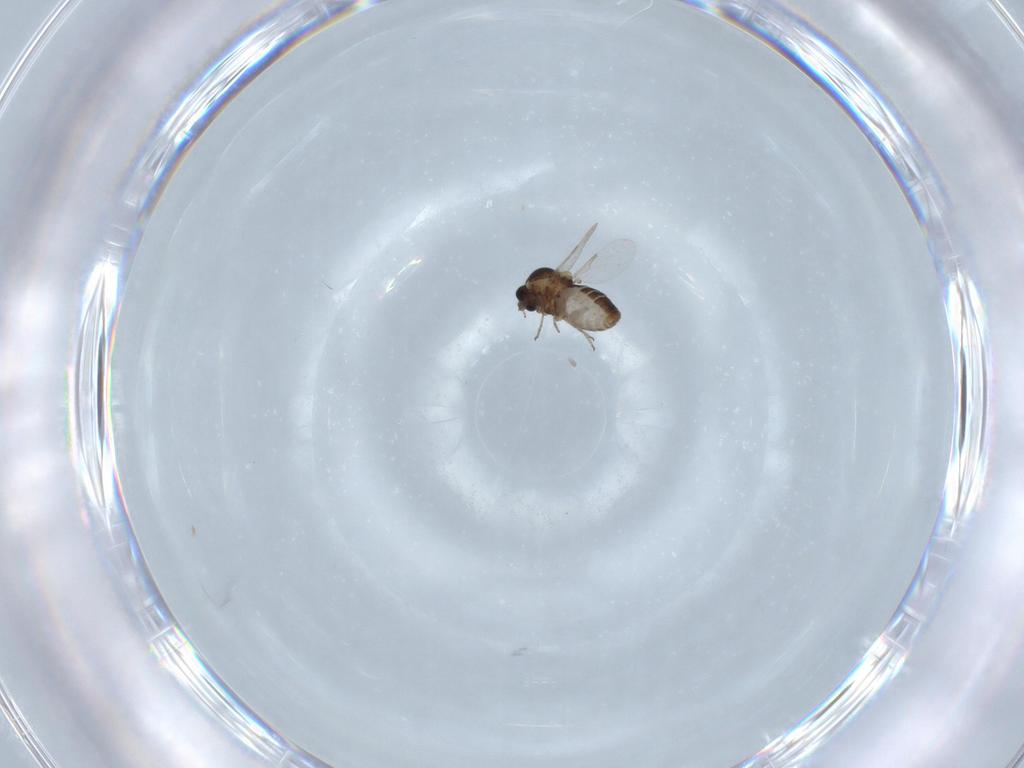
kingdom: Animalia
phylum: Arthropoda
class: Insecta
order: Diptera
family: Ceratopogonidae
